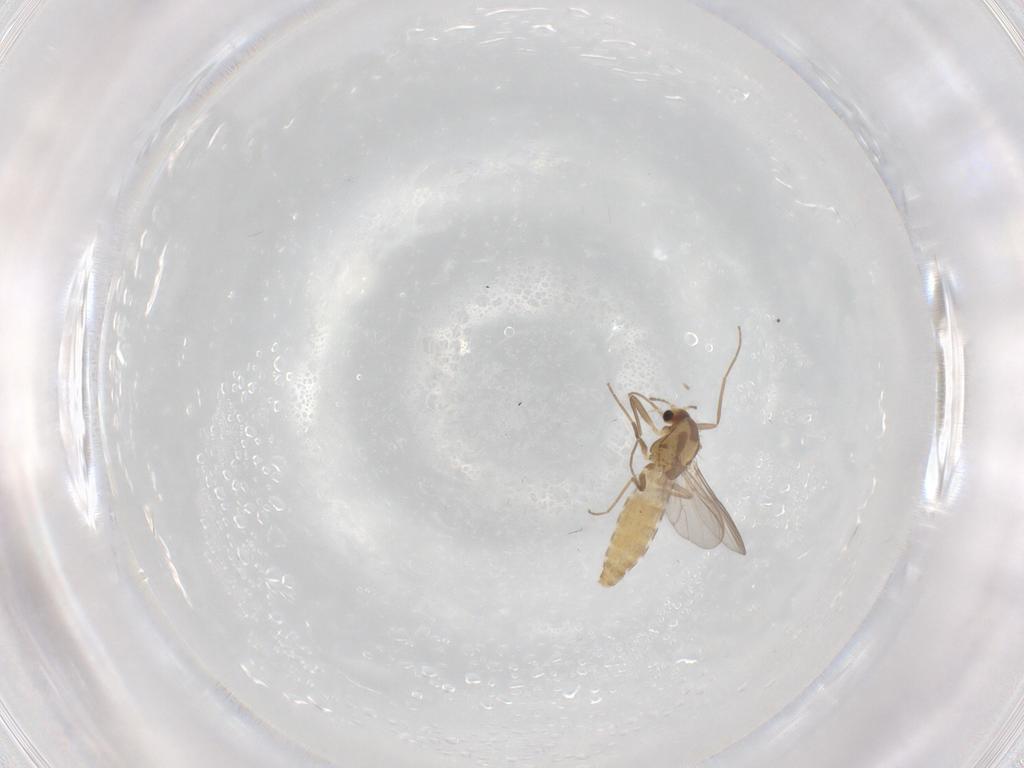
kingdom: Animalia
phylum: Arthropoda
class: Insecta
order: Diptera
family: Chironomidae
